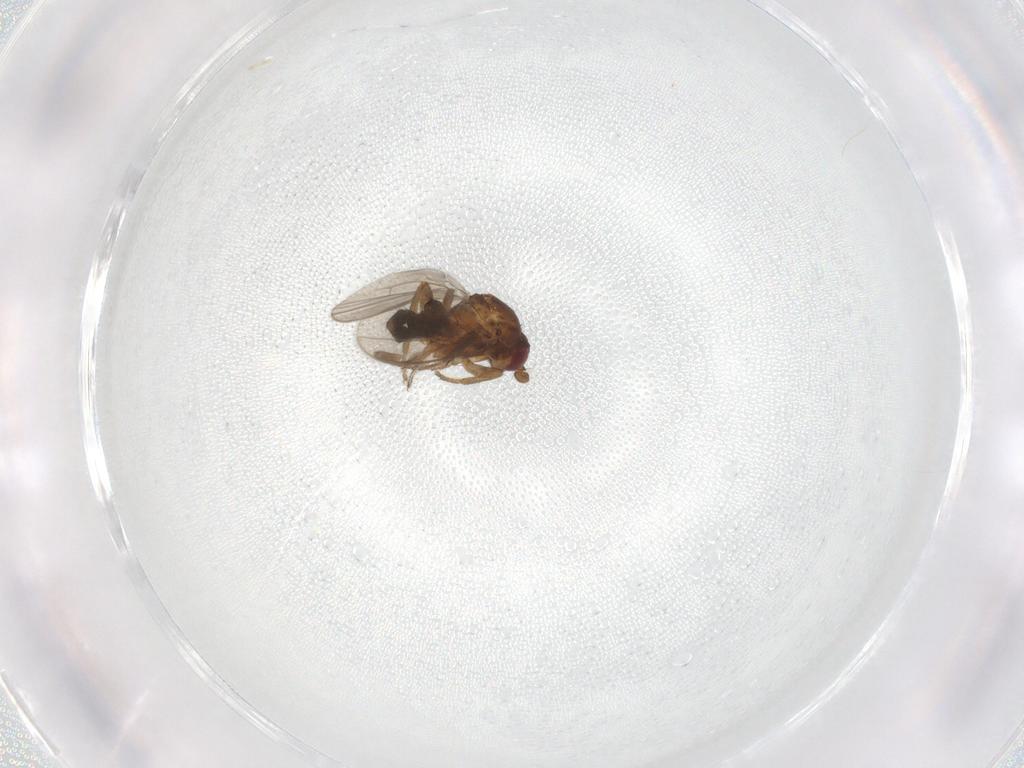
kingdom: Animalia
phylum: Arthropoda
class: Insecta
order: Diptera
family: Sphaeroceridae
